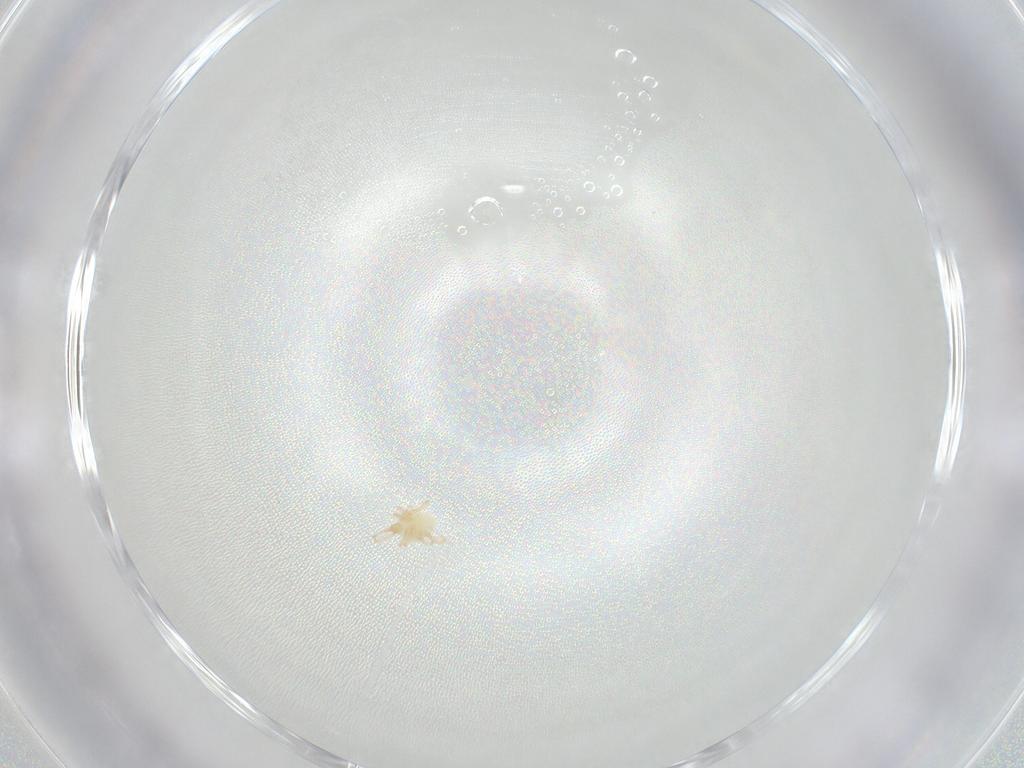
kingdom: Animalia
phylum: Arthropoda
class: Arachnida
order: Trombidiformes
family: Cunaxidae
